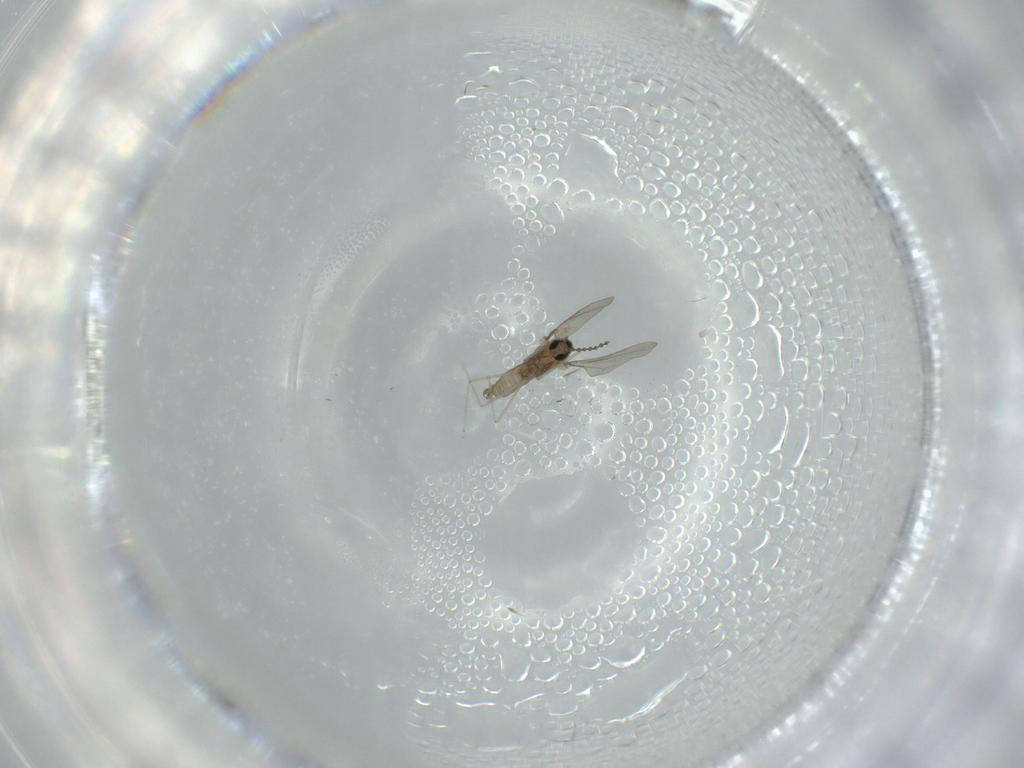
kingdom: Animalia
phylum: Arthropoda
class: Insecta
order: Diptera
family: Cecidomyiidae
